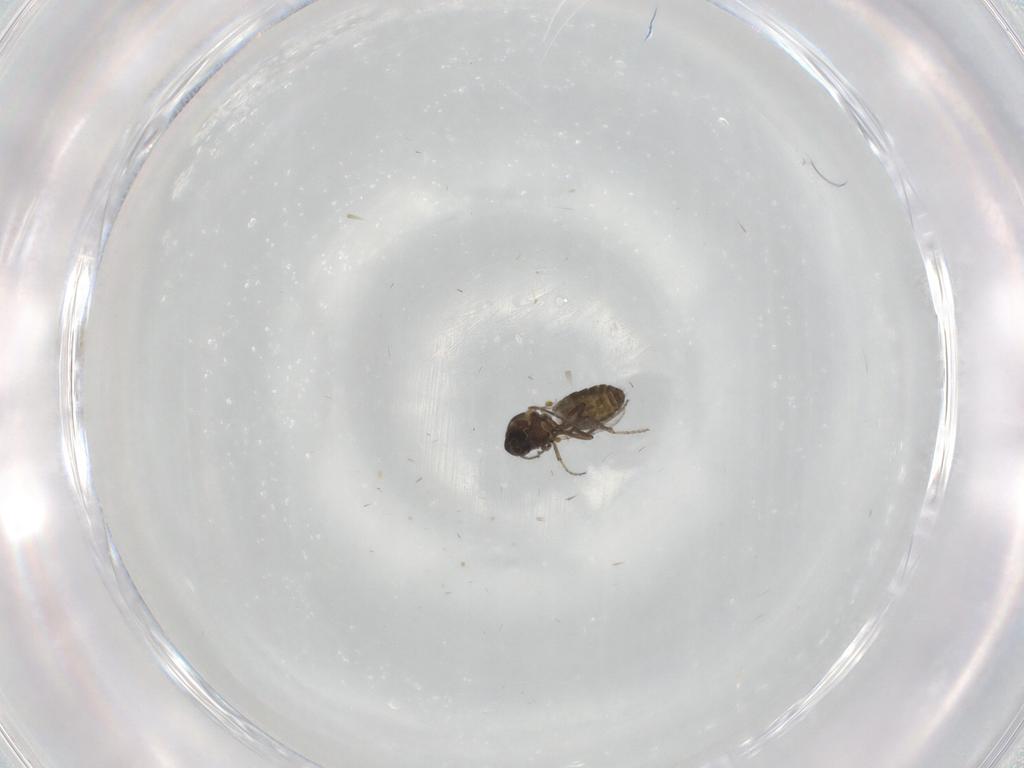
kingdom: Animalia
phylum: Arthropoda
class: Insecta
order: Diptera
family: Ceratopogonidae
